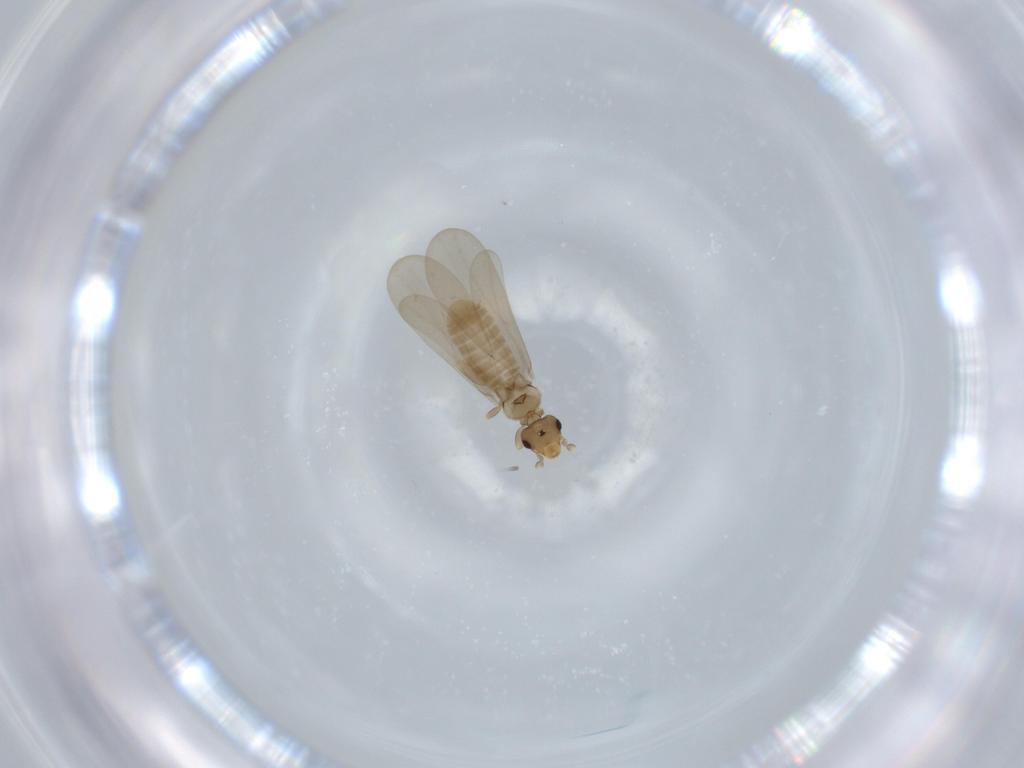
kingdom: Animalia
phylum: Arthropoda
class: Insecta
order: Psocodea
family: Liposcelididae
